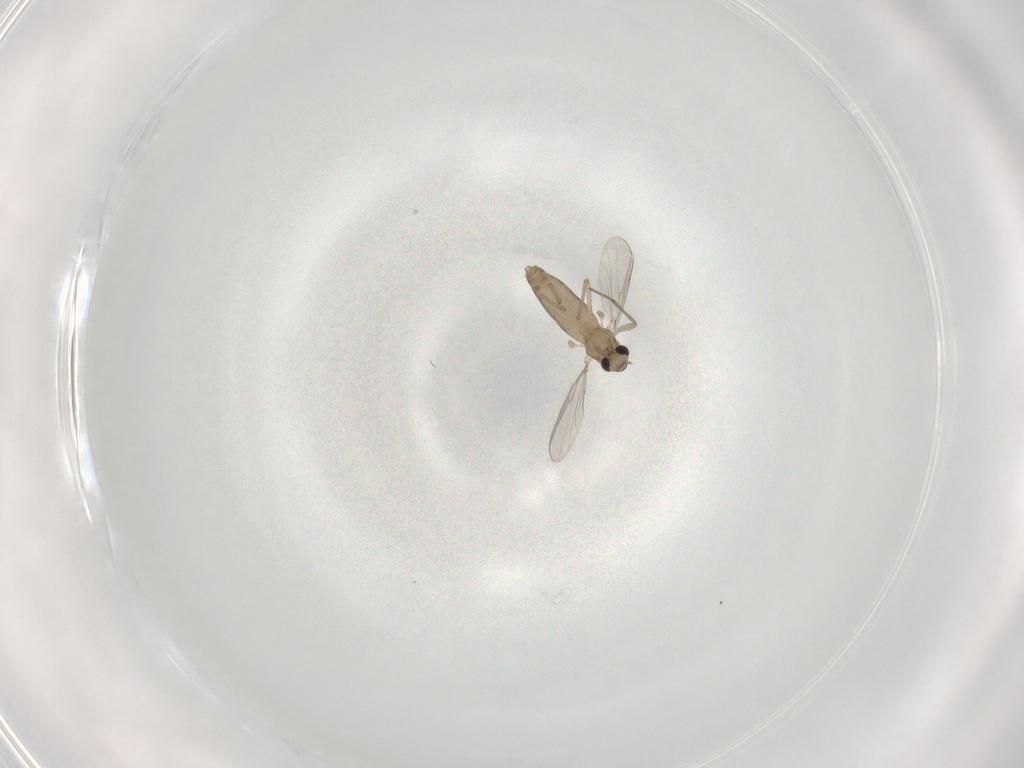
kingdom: Animalia
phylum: Arthropoda
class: Insecta
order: Diptera
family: Chironomidae
